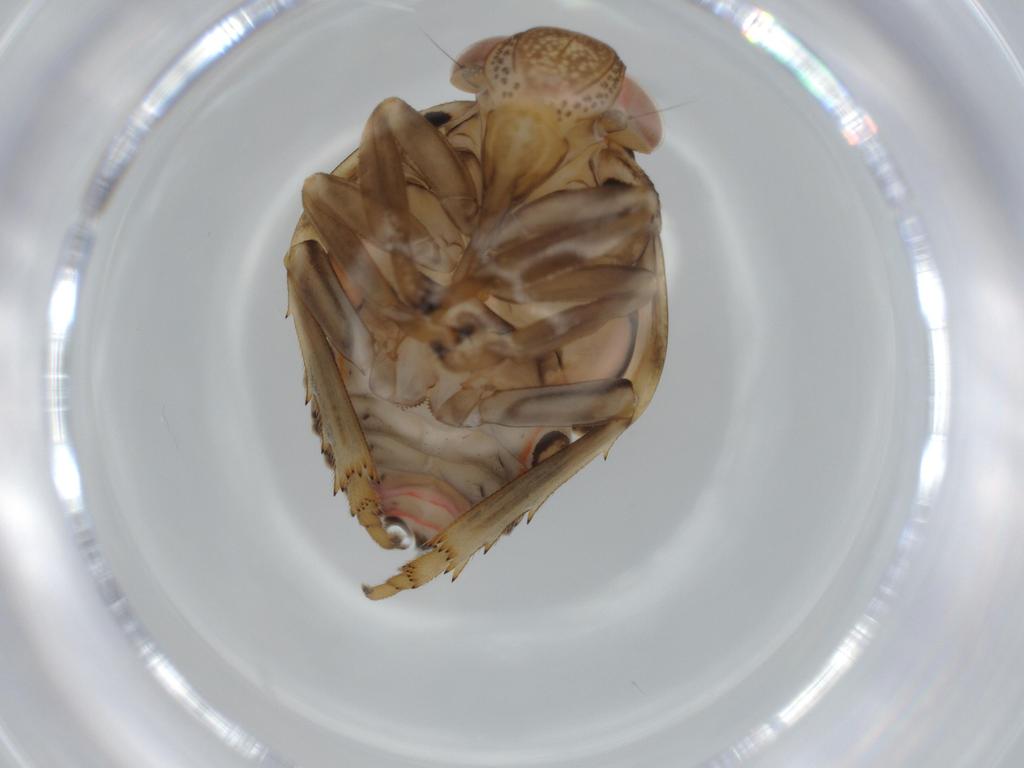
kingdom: Animalia
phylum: Arthropoda
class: Insecta
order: Hemiptera
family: Issidae
